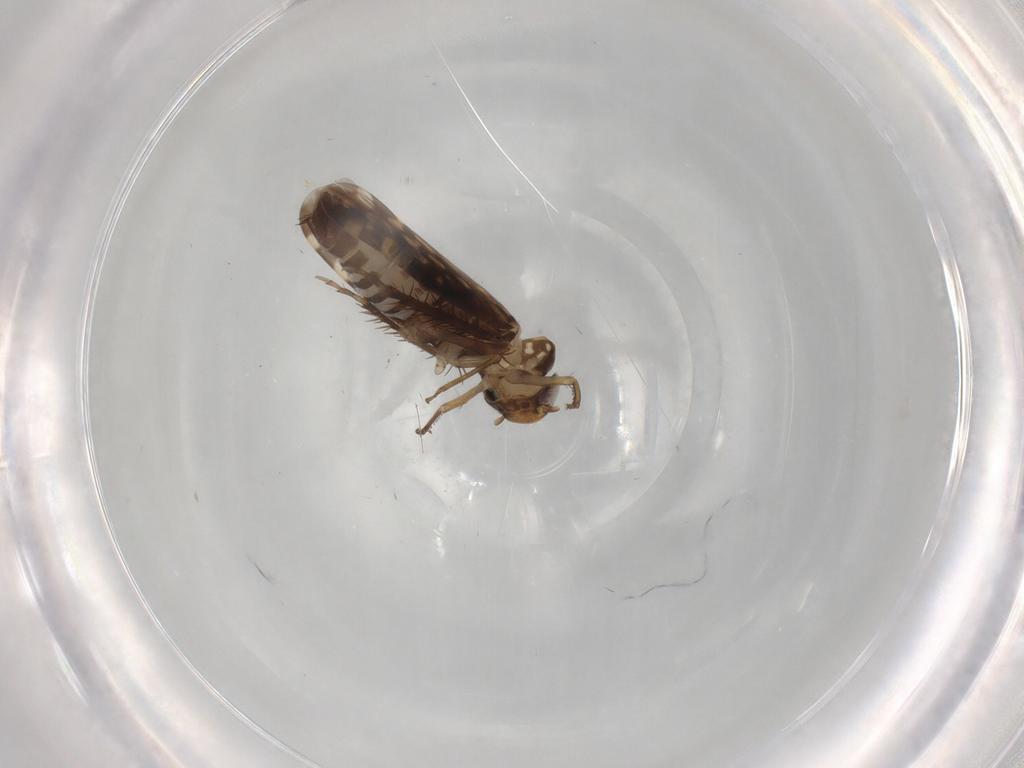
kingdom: Animalia
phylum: Arthropoda
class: Insecta
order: Hemiptera
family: Cicadellidae
